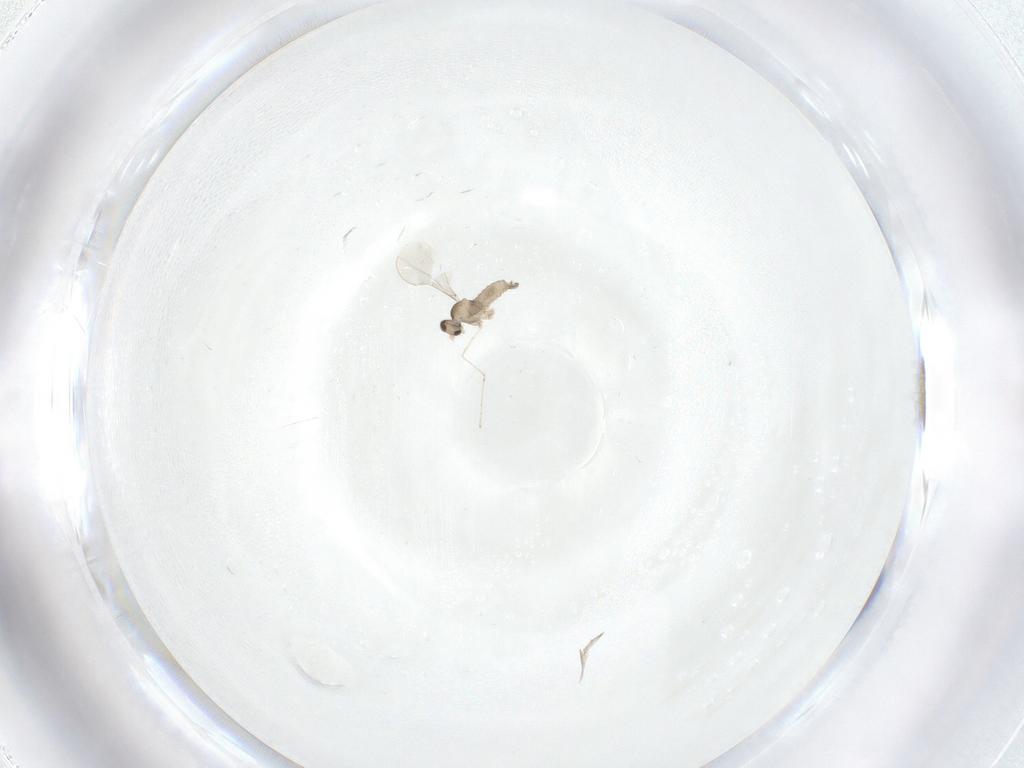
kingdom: Animalia
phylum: Arthropoda
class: Insecta
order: Diptera
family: Cecidomyiidae
